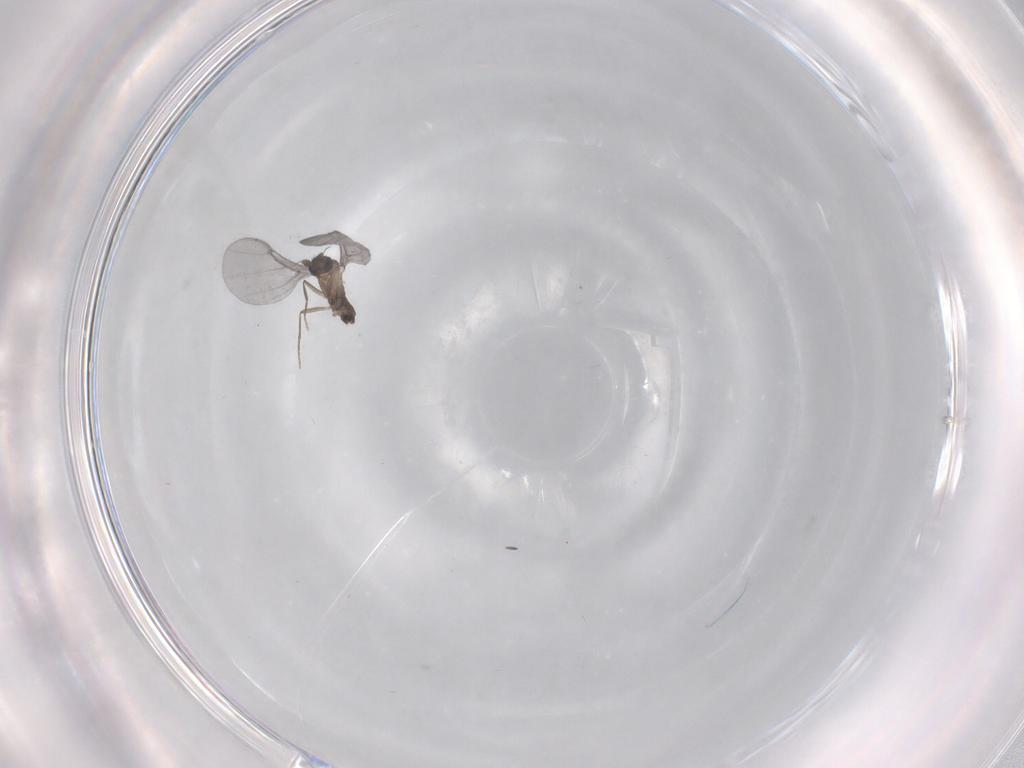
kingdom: Animalia
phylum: Arthropoda
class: Insecta
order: Diptera
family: Phoridae
